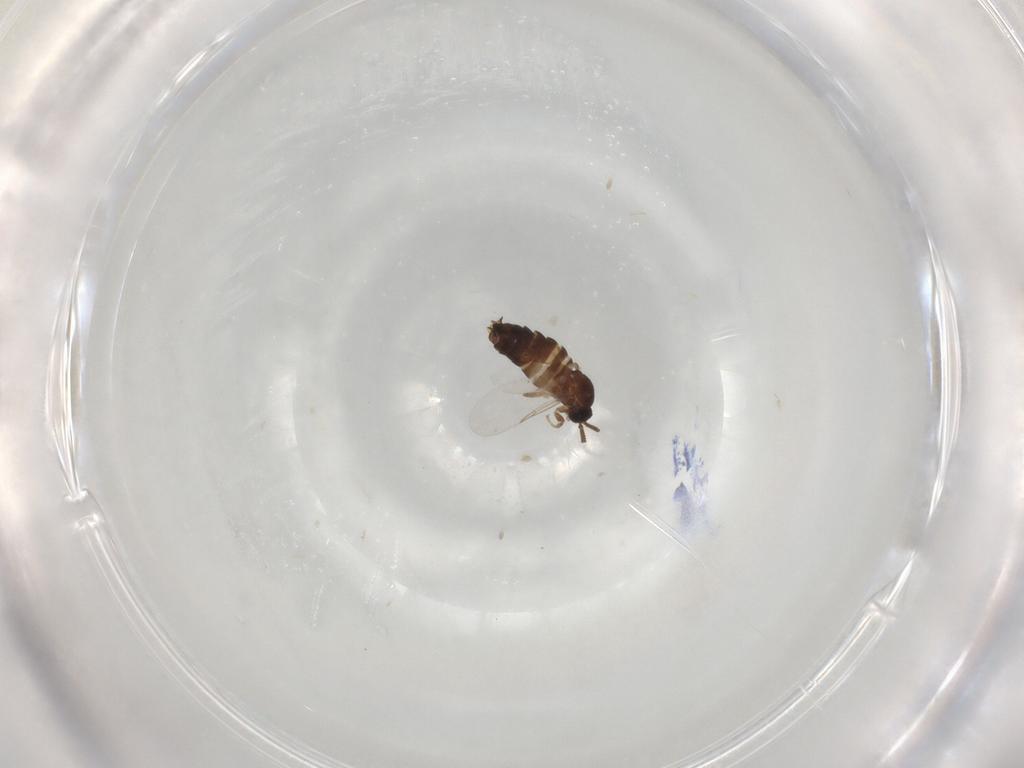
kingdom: Animalia
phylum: Arthropoda
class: Insecta
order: Diptera
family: Scatopsidae
